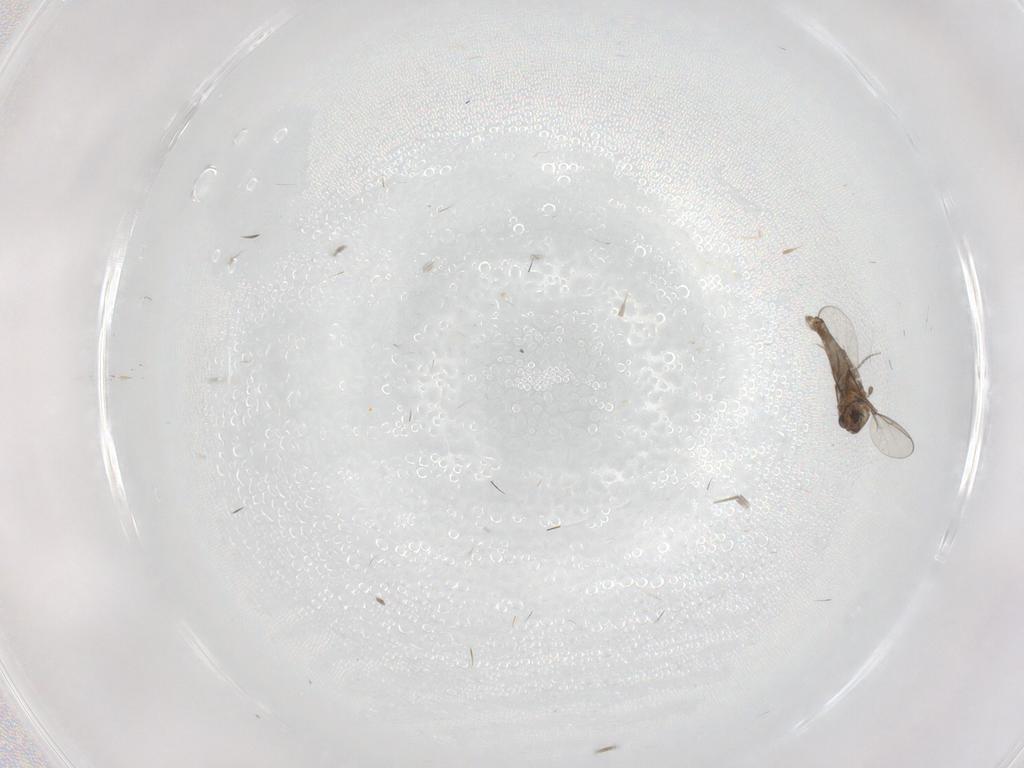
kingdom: Animalia
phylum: Arthropoda
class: Insecta
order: Diptera
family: Chironomidae
